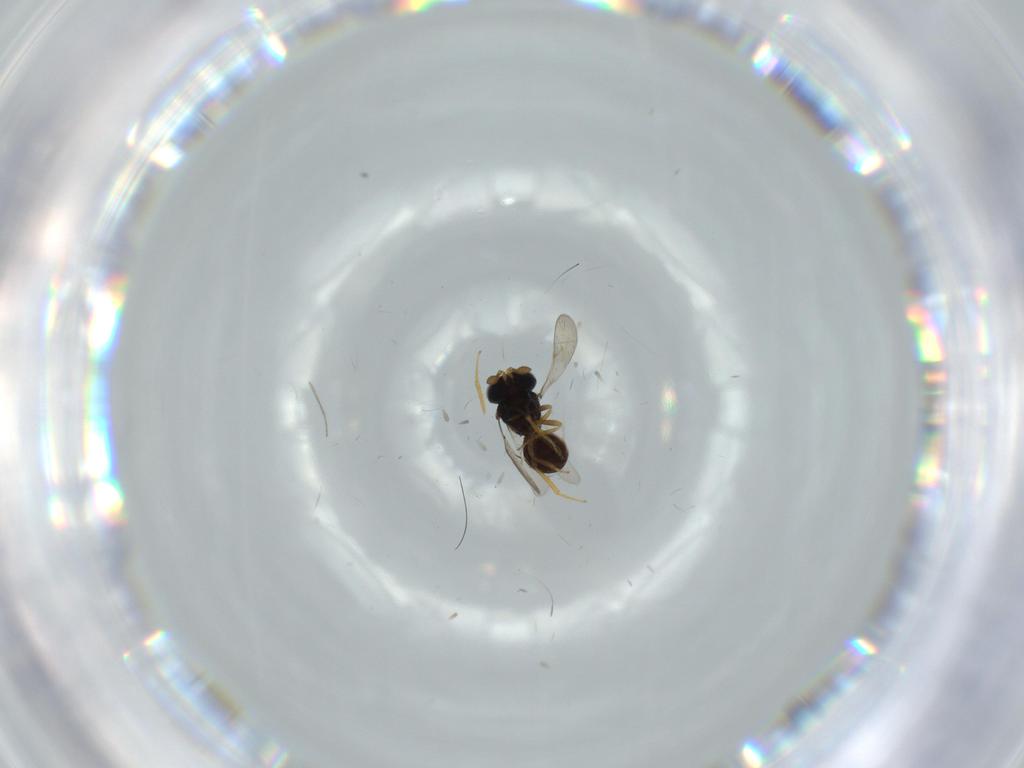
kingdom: Animalia
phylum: Arthropoda
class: Insecta
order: Hymenoptera
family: Scelionidae
